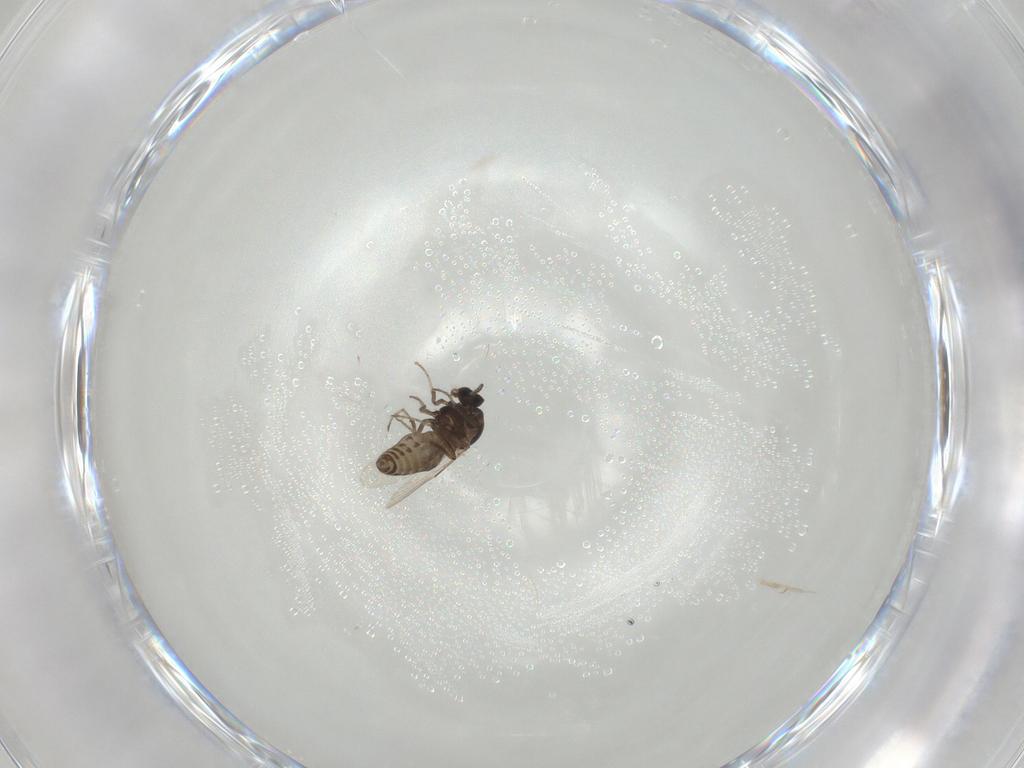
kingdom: Animalia
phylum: Arthropoda
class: Insecta
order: Diptera
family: Ceratopogonidae
